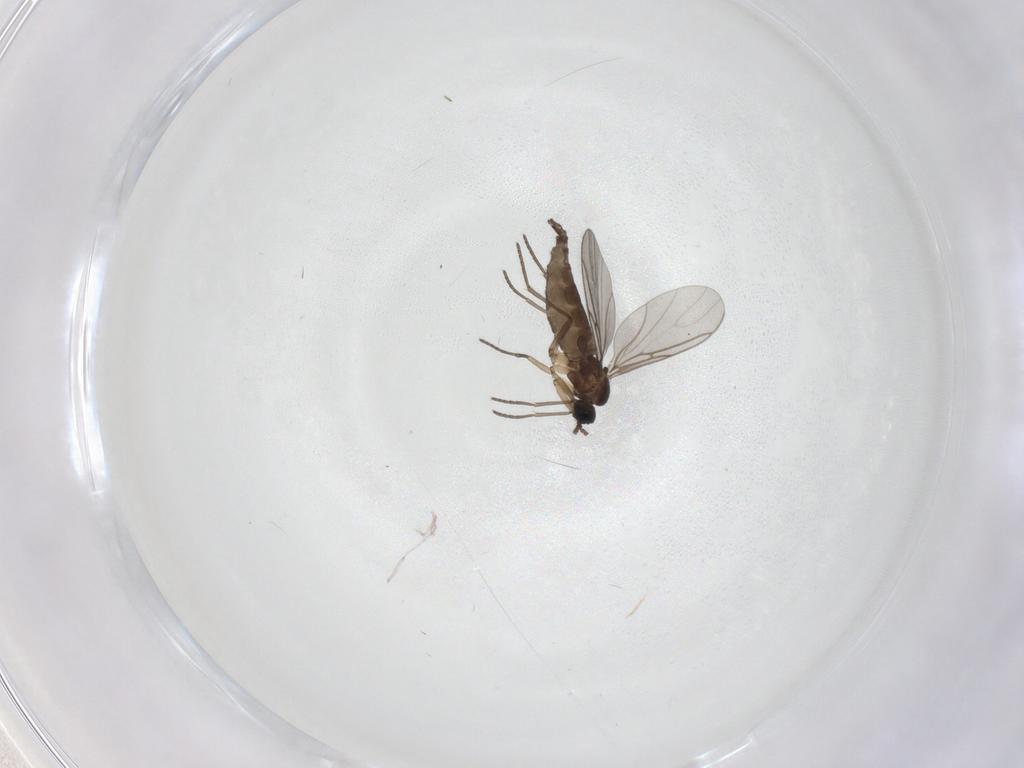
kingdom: Animalia
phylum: Arthropoda
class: Insecta
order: Diptera
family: Sciaridae
